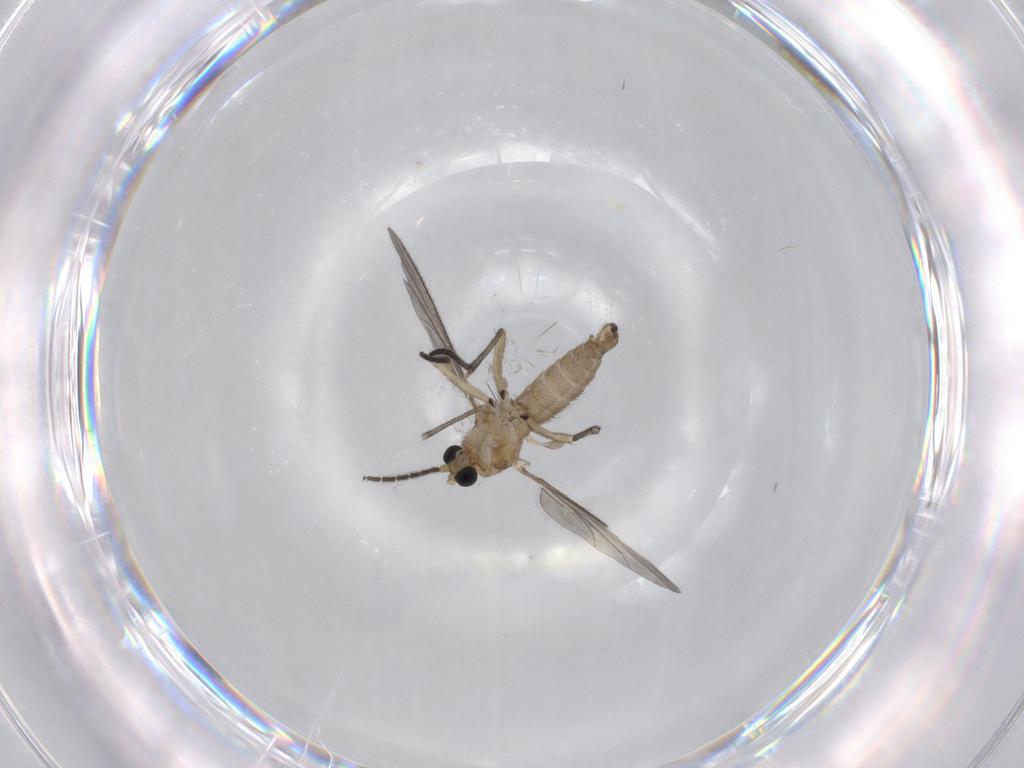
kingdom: Animalia
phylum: Arthropoda
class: Insecta
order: Diptera
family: Sciaridae
